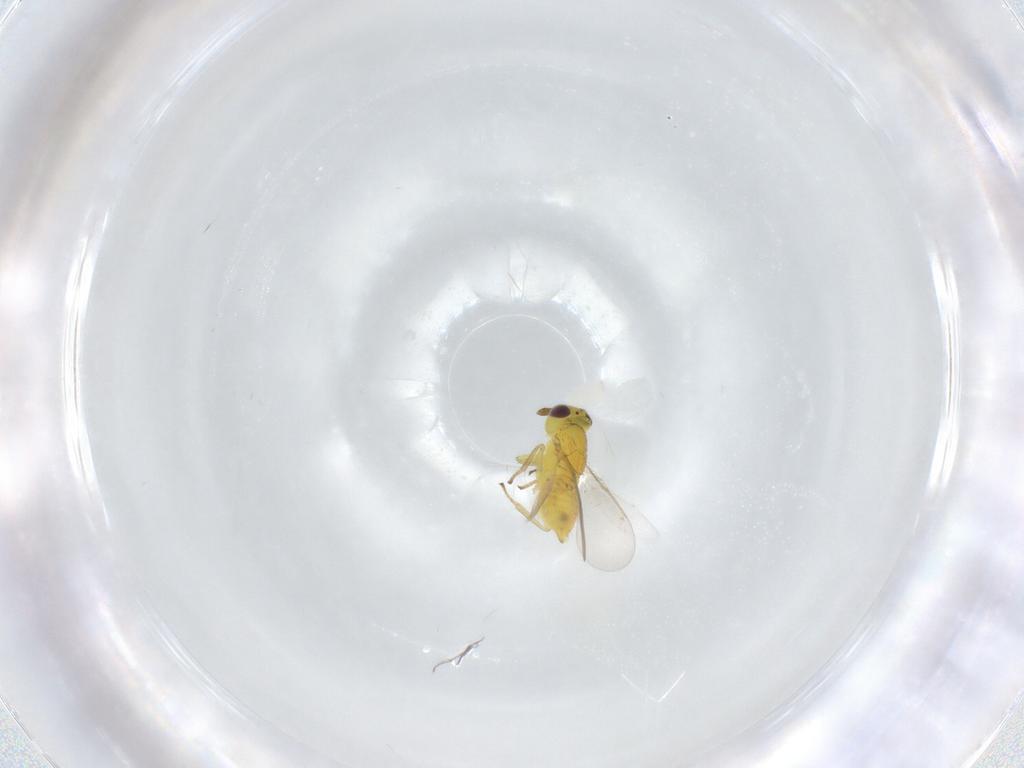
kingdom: Animalia
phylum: Arthropoda
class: Insecta
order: Hymenoptera
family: Aphelinidae
